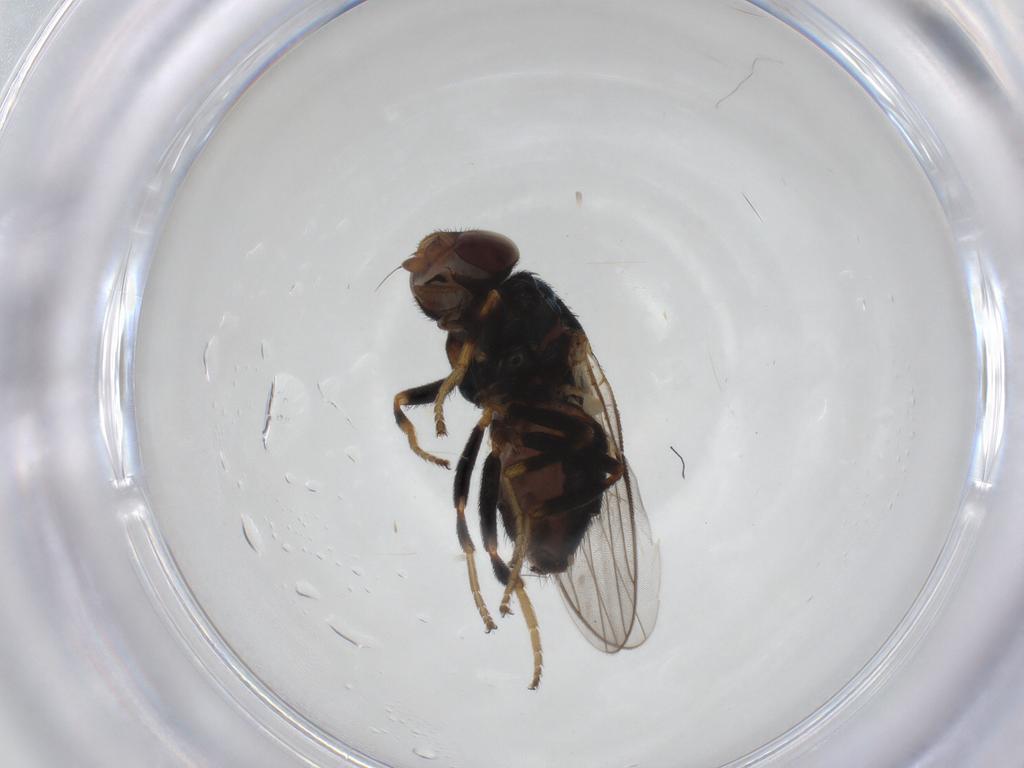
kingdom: Animalia
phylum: Arthropoda
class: Insecta
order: Diptera
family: Chloropidae
